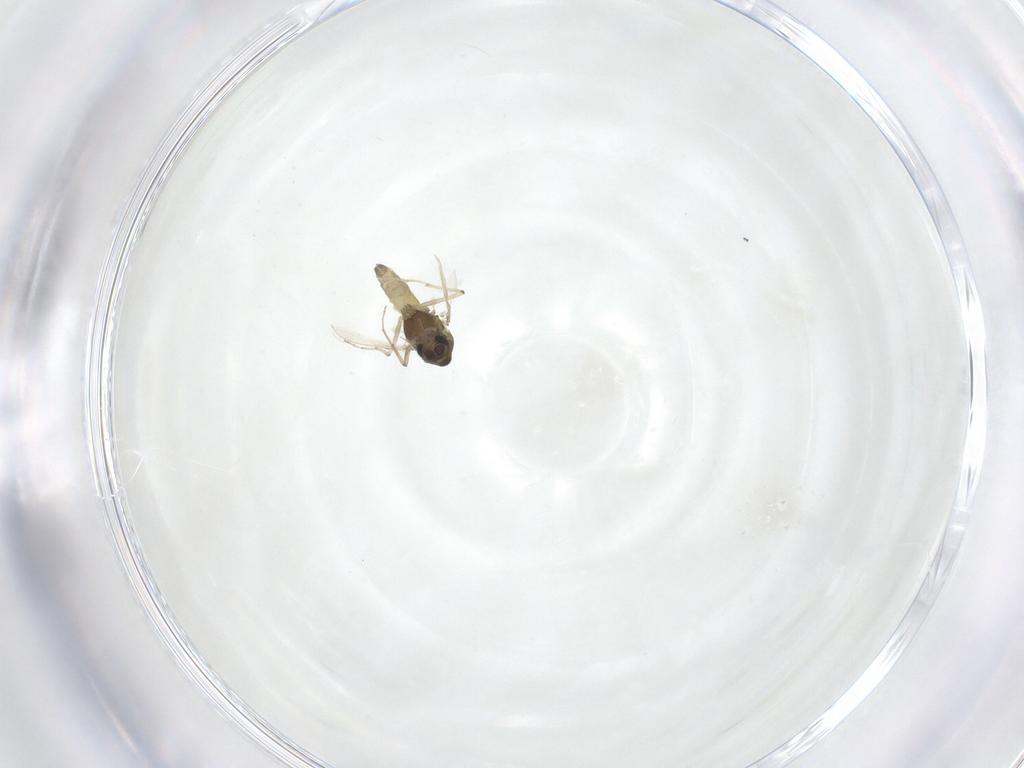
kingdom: Animalia
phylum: Arthropoda
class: Insecta
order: Diptera
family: Chironomidae
